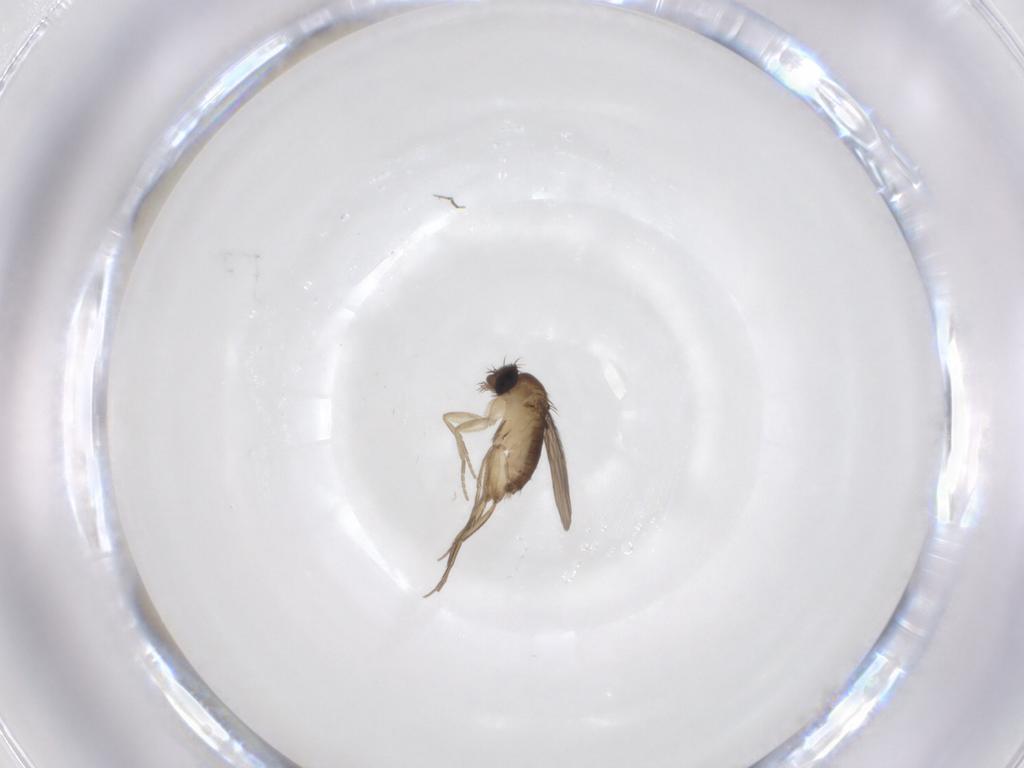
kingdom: Animalia
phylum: Arthropoda
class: Insecta
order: Diptera
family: Phoridae
